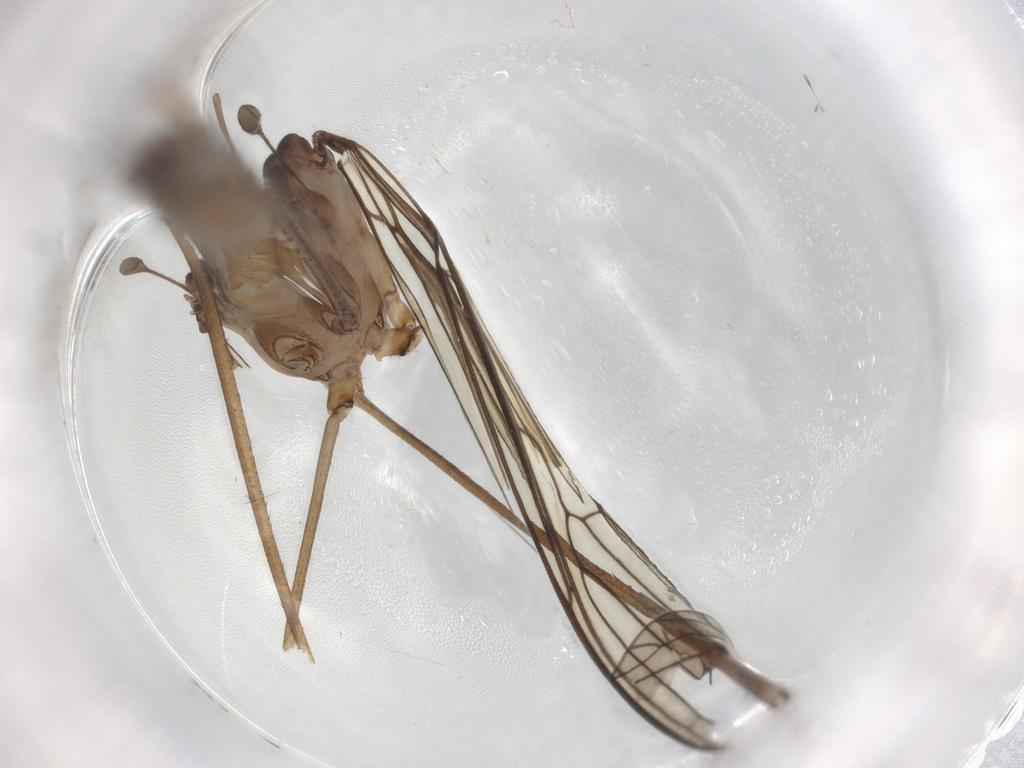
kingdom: Animalia
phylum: Arthropoda
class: Insecta
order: Diptera
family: Limoniidae
